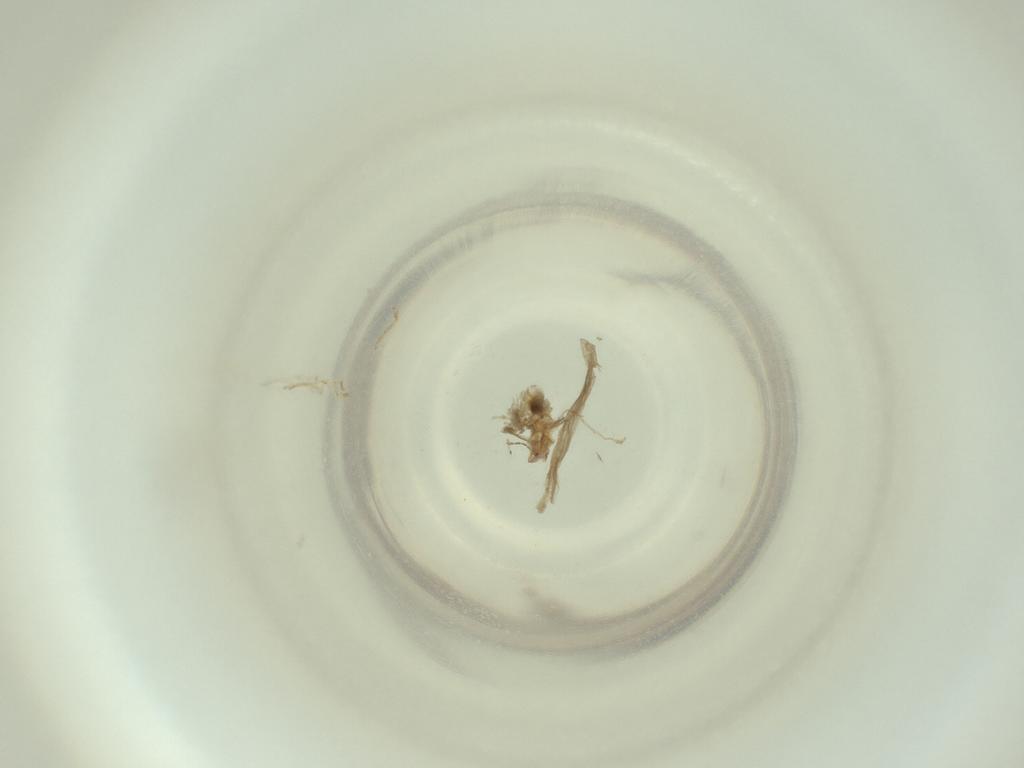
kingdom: Animalia
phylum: Arthropoda
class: Insecta
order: Diptera
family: Cecidomyiidae
